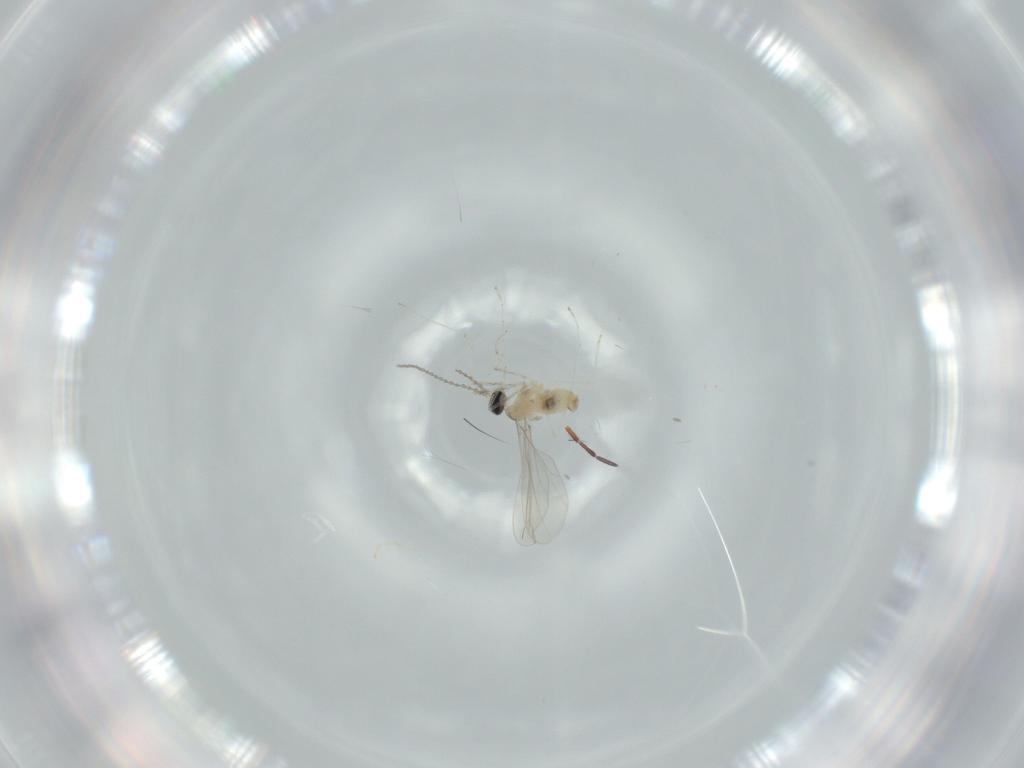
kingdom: Animalia
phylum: Arthropoda
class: Insecta
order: Diptera
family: Cecidomyiidae
